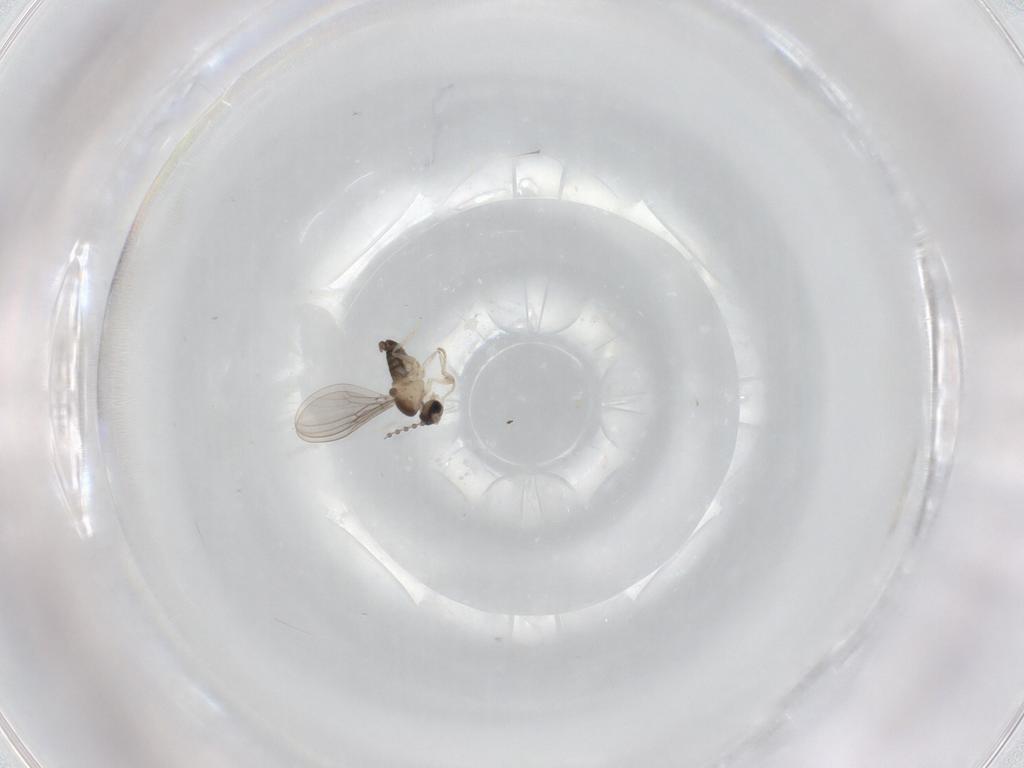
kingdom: Animalia
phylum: Arthropoda
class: Insecta
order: Diptera
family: Cecidomyiidae
